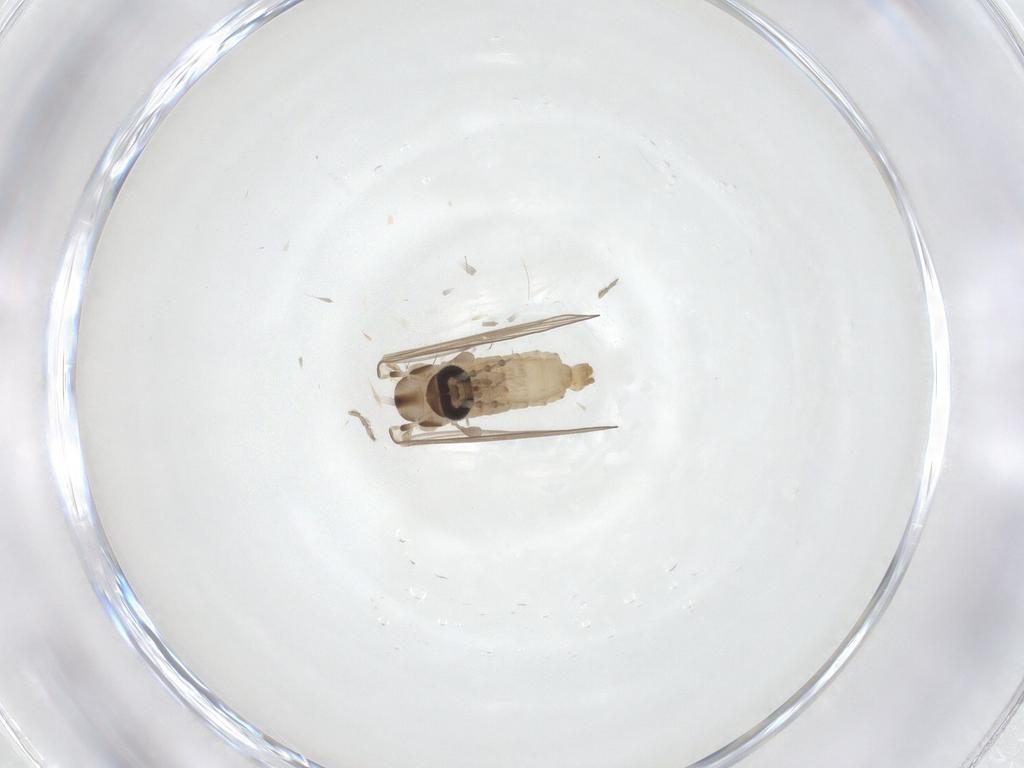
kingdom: Animalia
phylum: Arthropoda
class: Insecta
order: Diptera
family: Psychodidae
